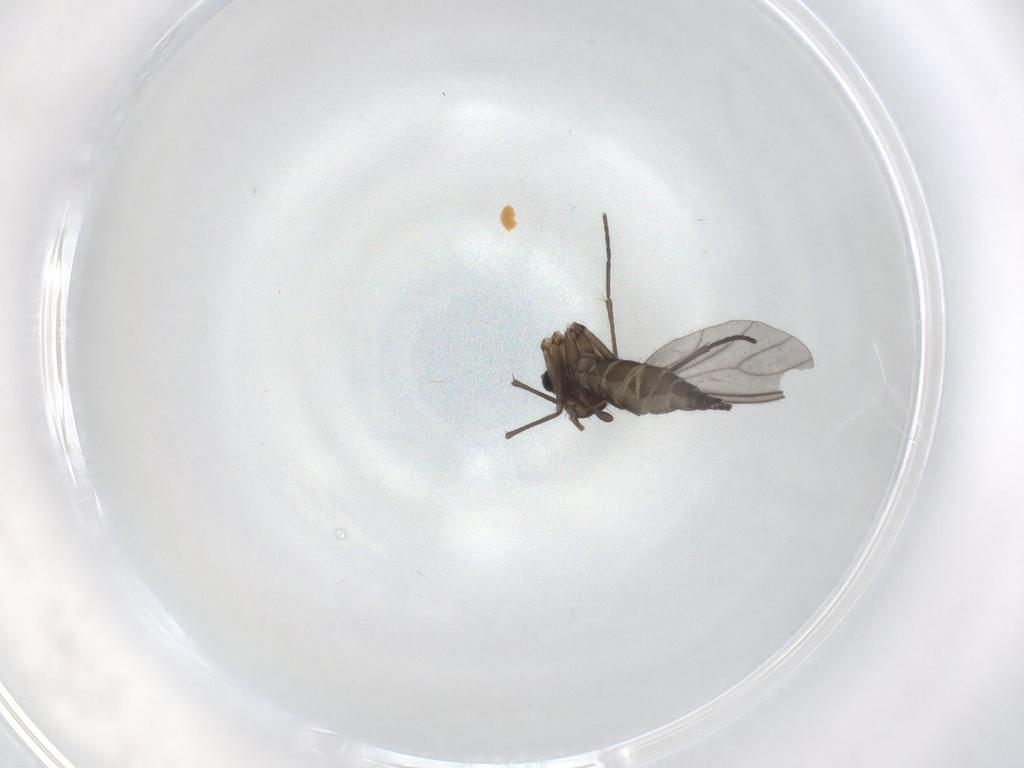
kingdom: Animalia
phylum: Arthropoda
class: Insecta
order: Diptera
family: Sciaridae
